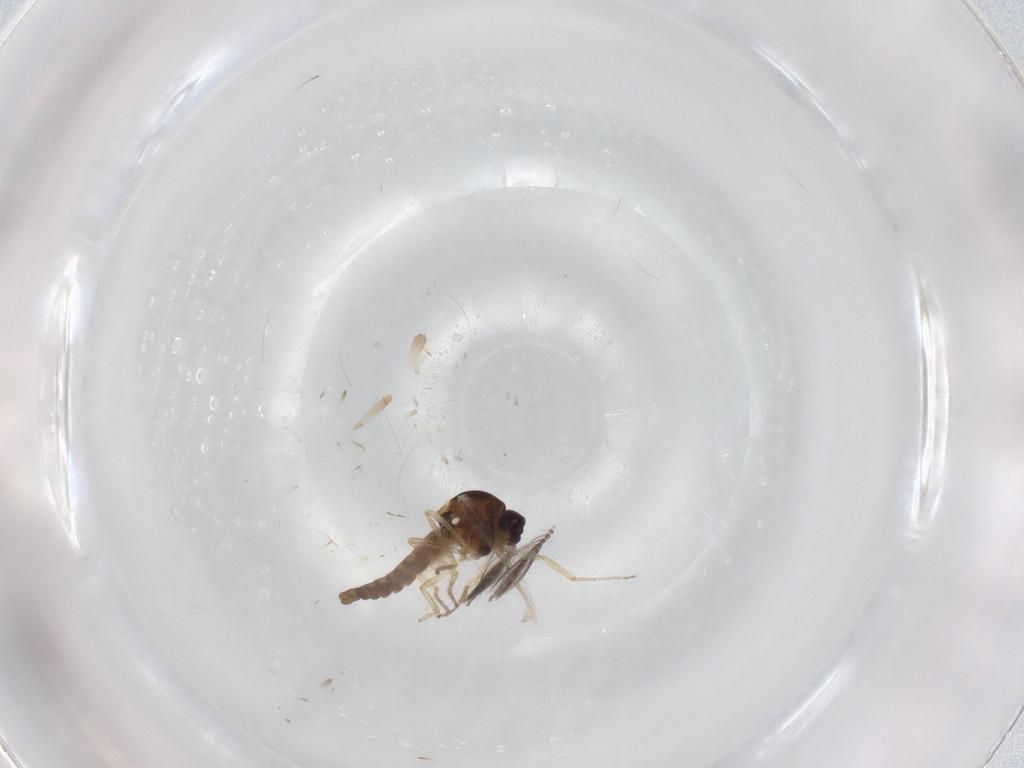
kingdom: Animalia
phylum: Arthropoda
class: Insecta
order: Diptera
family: Ceratopogonidae
